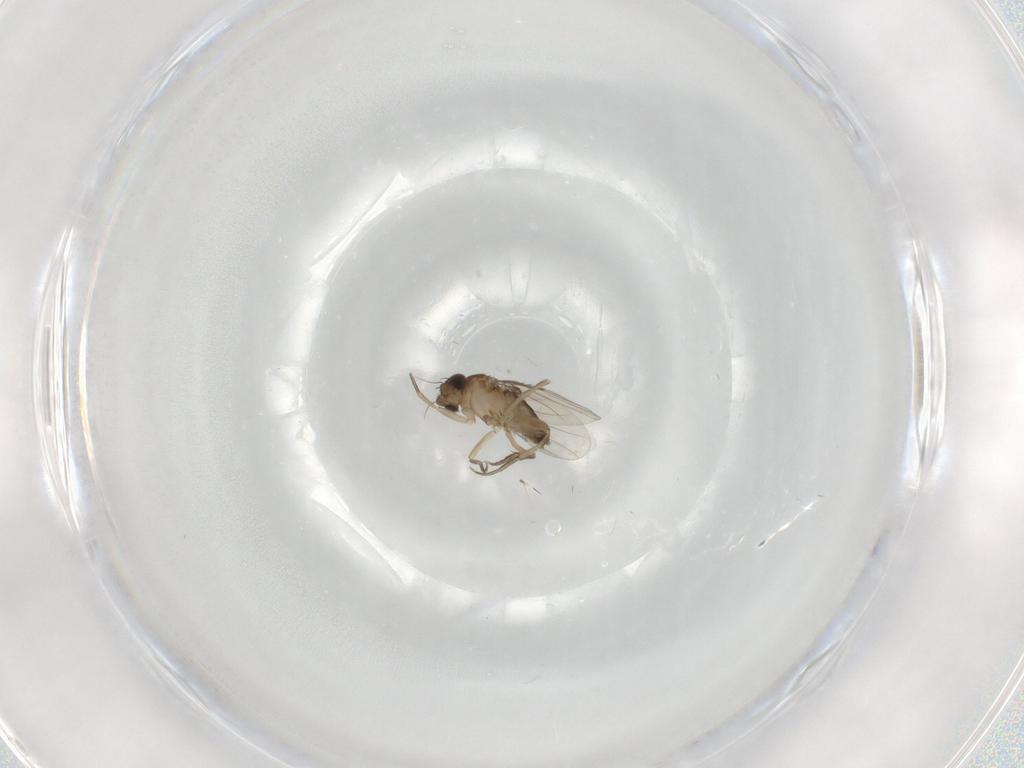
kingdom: Animalia
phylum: Arthropoda
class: Insecta
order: Diptera
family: Phoridae
